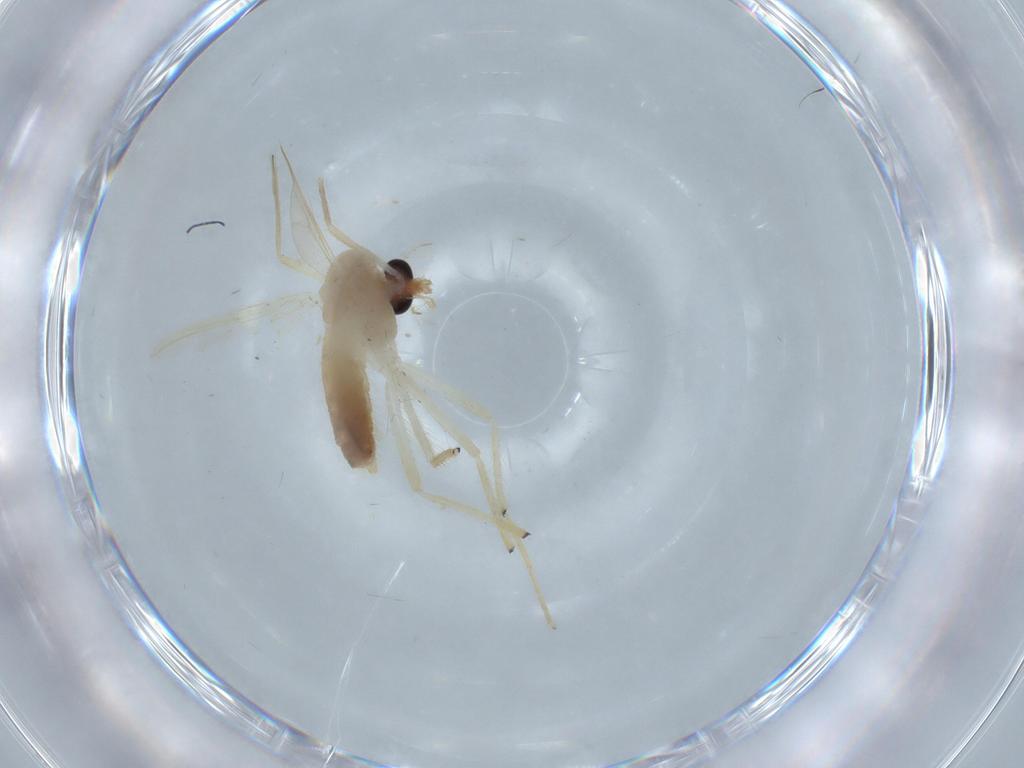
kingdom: Animalia
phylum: Arthropoda
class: Insecta
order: Diptera
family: Chironomidae
